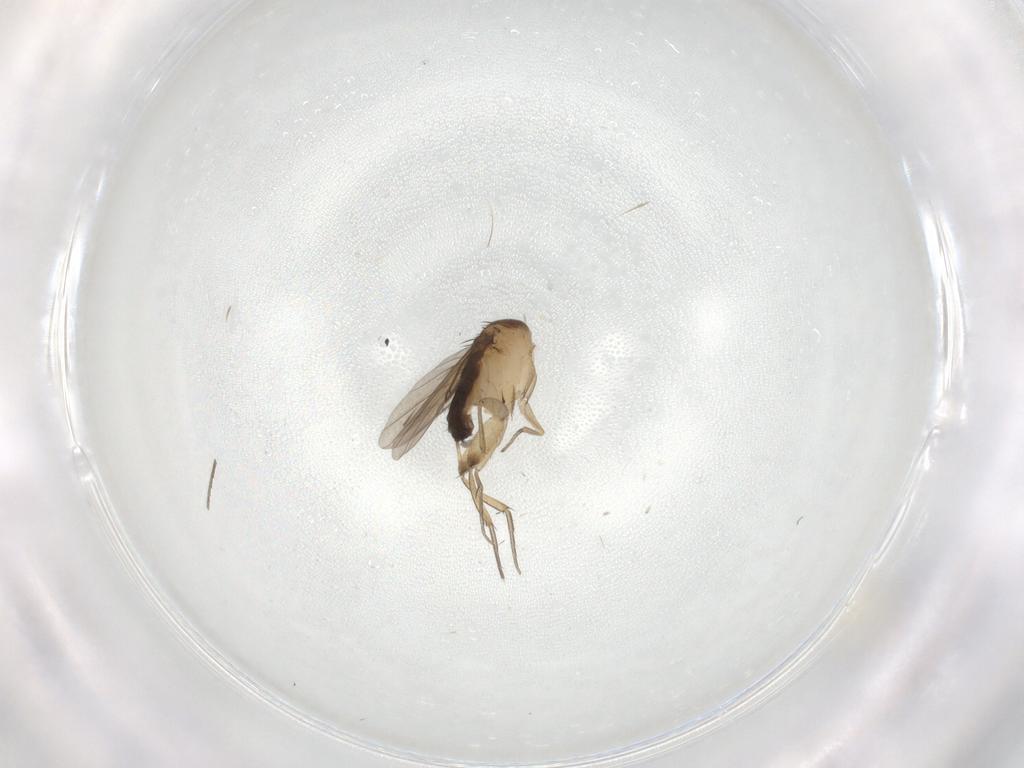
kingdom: Animalia
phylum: Arthropoda
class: Insecta
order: Diptera
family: Phoridae
